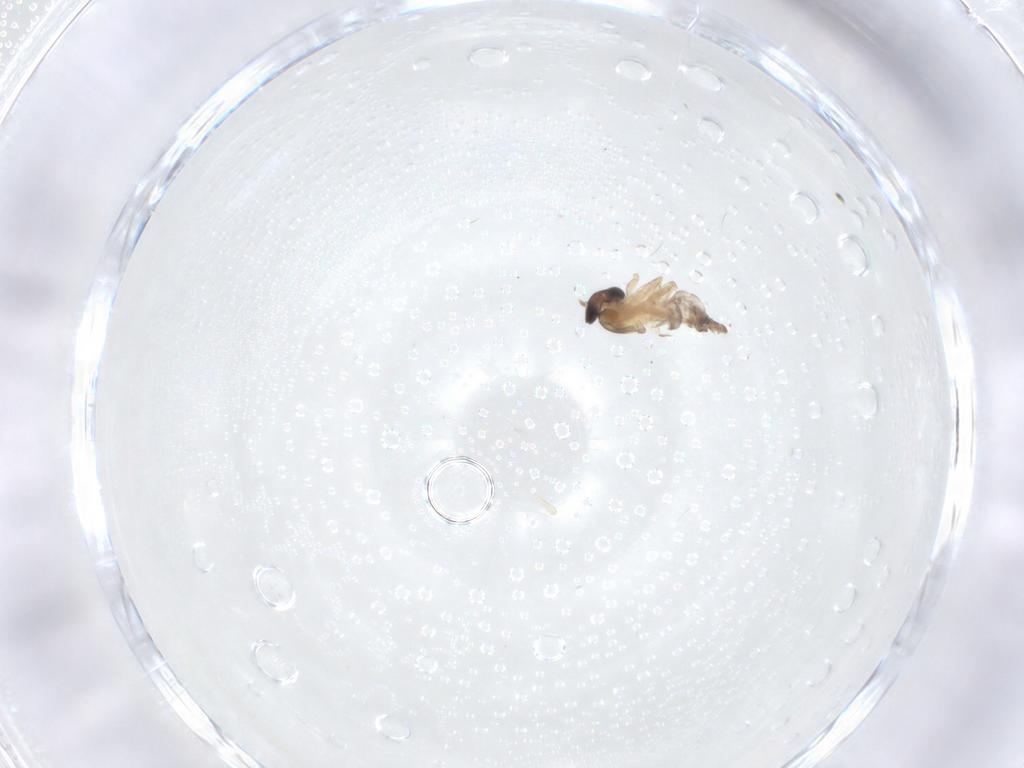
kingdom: Animalia
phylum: Arthropoda
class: Insecta
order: Diptera
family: Psychodidae
